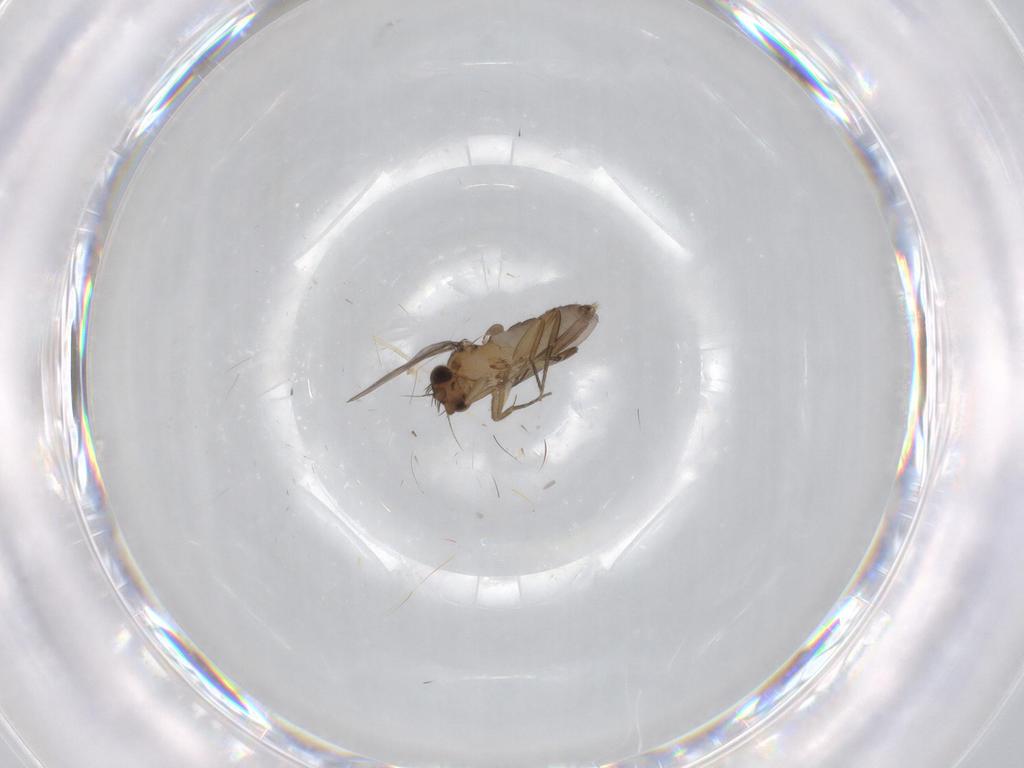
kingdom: Animalia
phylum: Arthropoda
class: Insecta
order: Diptera
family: Phoridae
